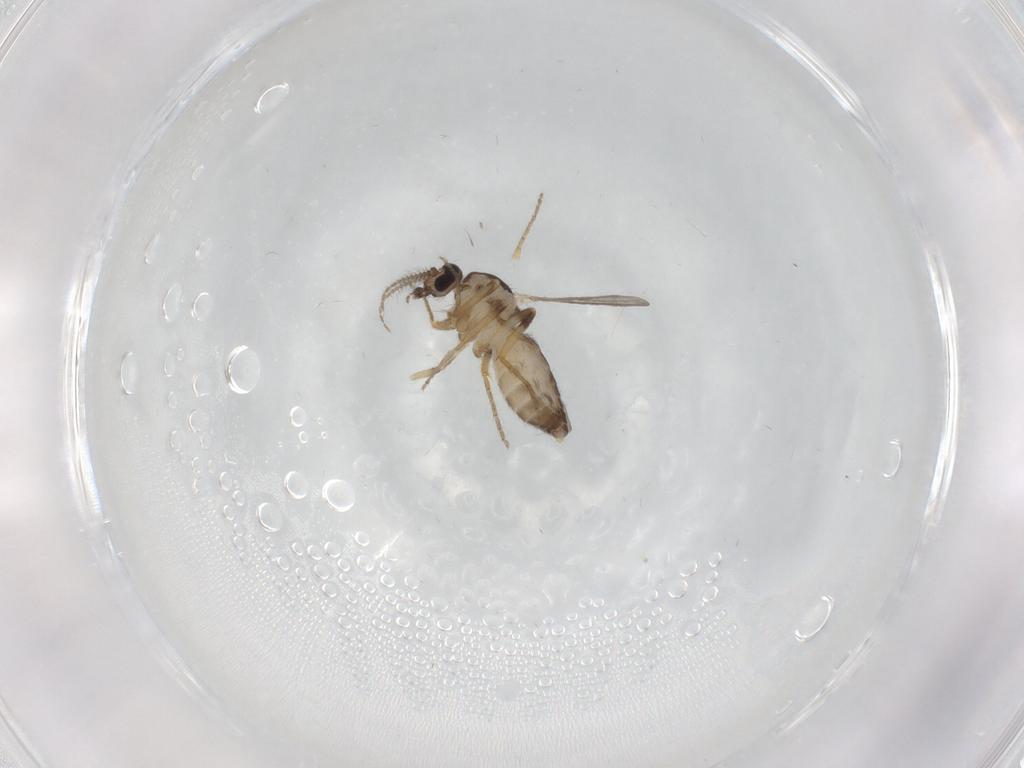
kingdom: Animalia
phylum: Arthropoda
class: Insecta
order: Diptera
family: Ceratopogonidae
